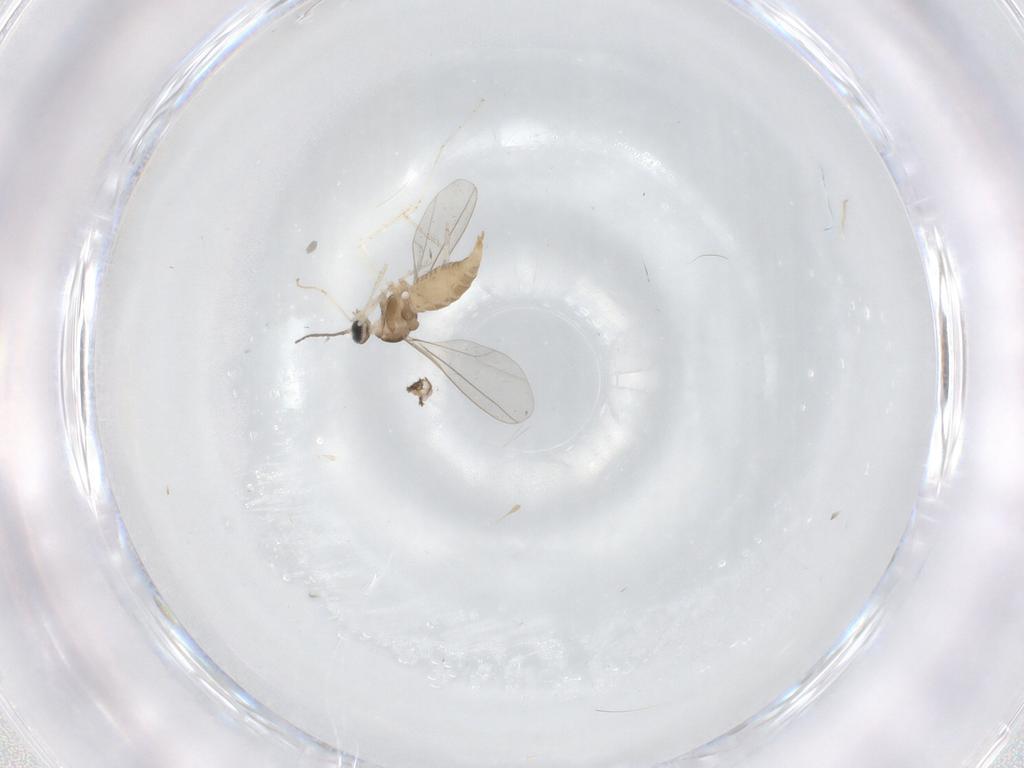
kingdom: Animalia
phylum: Arthropoda
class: Insecta
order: Diptera
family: Cecidomyiidae
